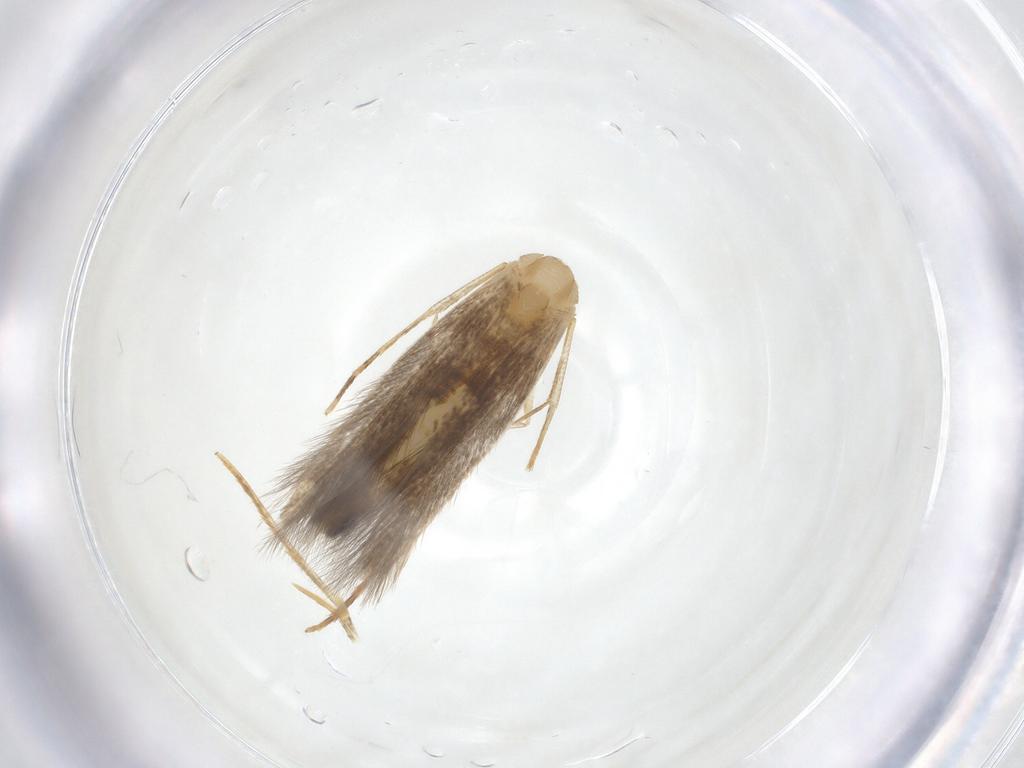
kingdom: Animalia
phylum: Arthropoda
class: Insecta
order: Lepidoptera
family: Cosmopterigidae
